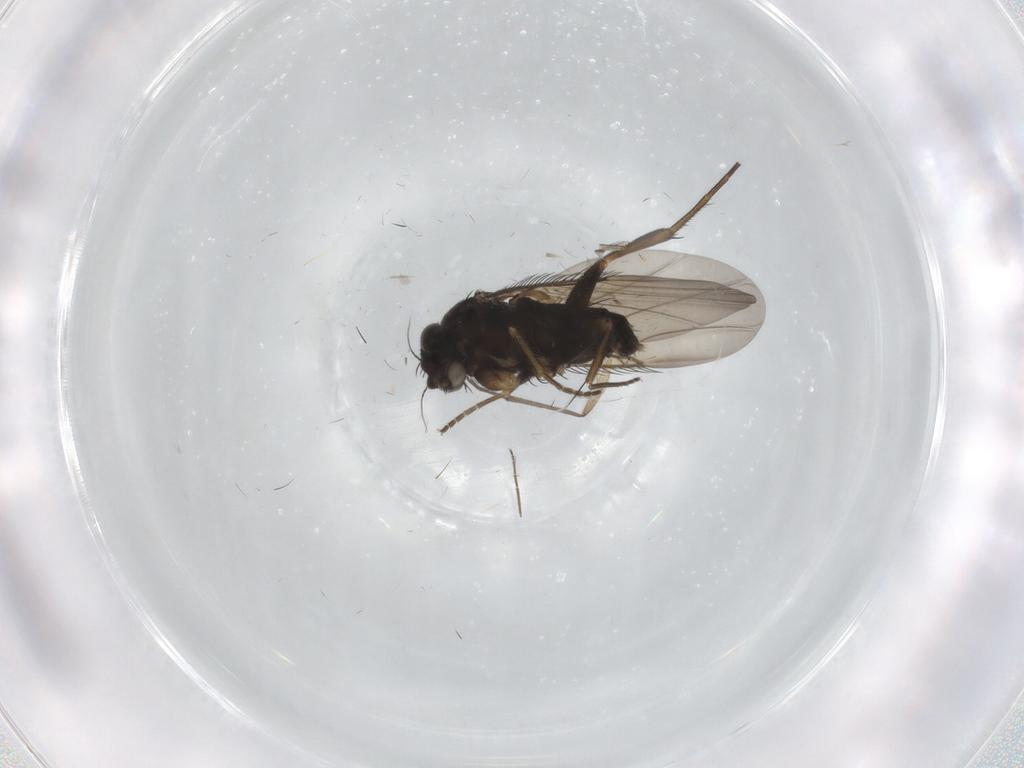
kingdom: Animalia
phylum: Arthropoda
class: Insecta
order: Diptera
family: Phoridae
